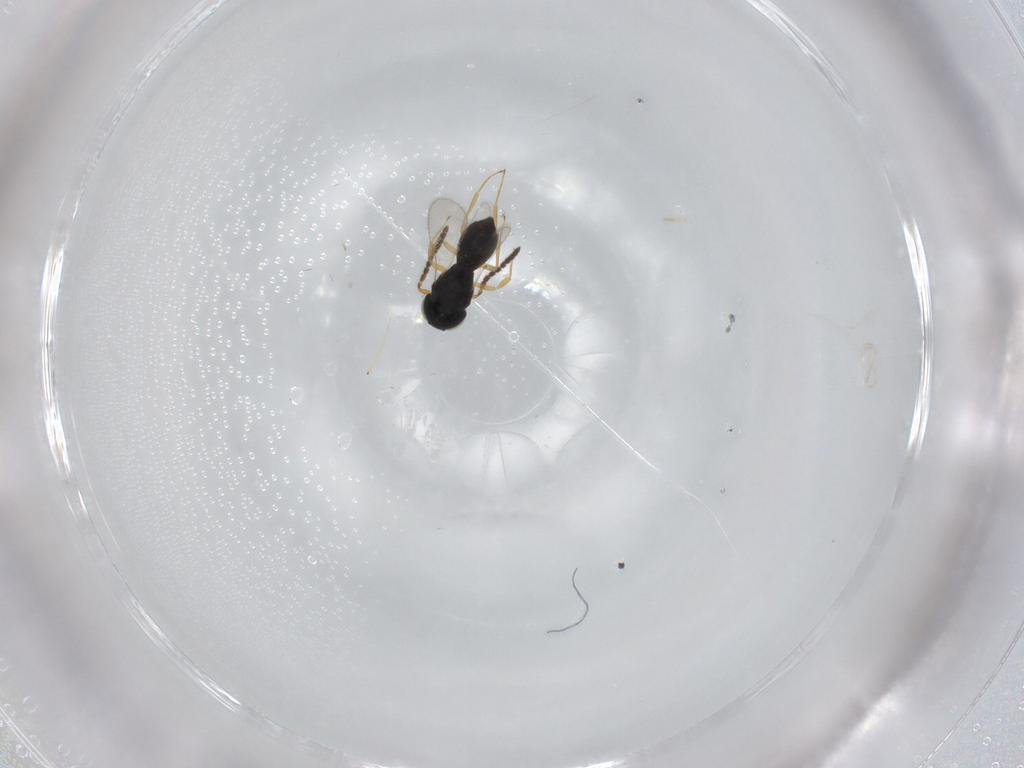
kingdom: Animalia
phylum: Arthropoda
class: Insecta
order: Hymenoptera
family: Scelionidae
